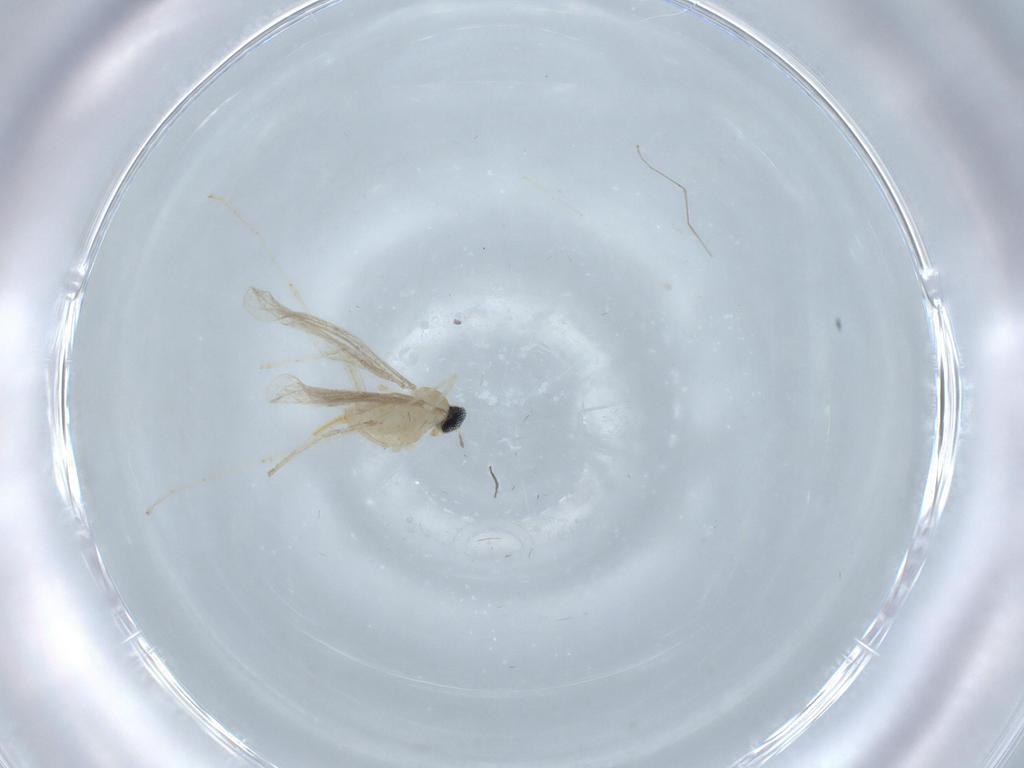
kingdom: Animalia
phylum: Arthropoda
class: Insecta
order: Diptera
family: Cecidomyiidae
